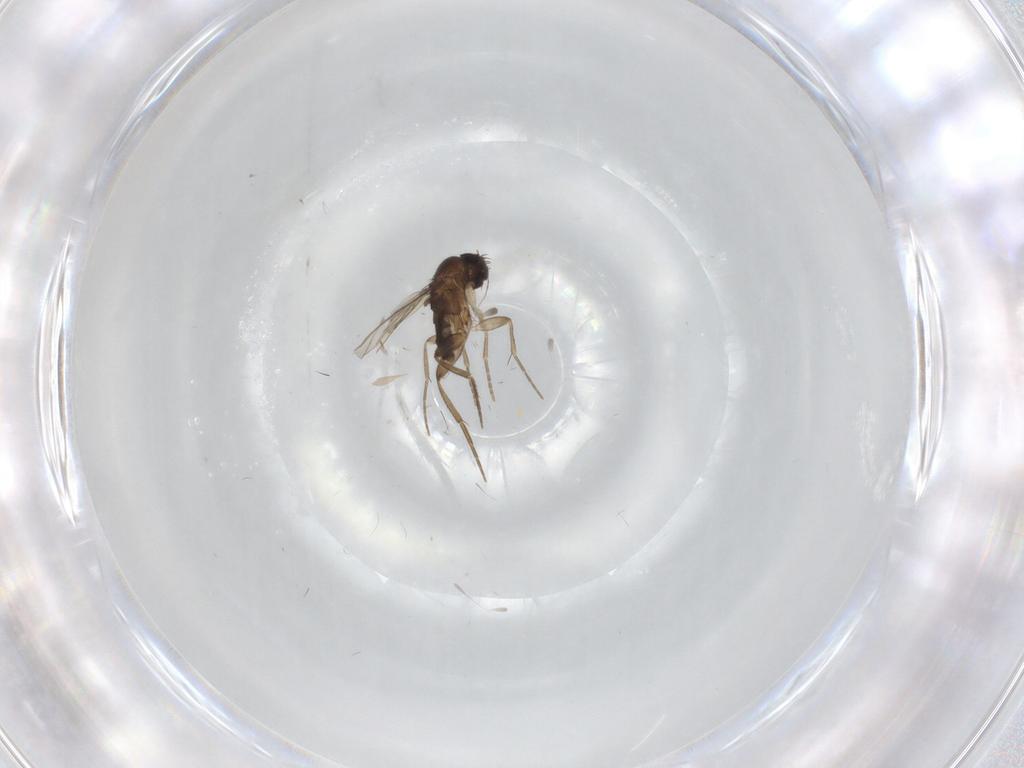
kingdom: Animalia
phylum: Arthropoda
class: Insecta
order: Diptera
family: Phoridae
